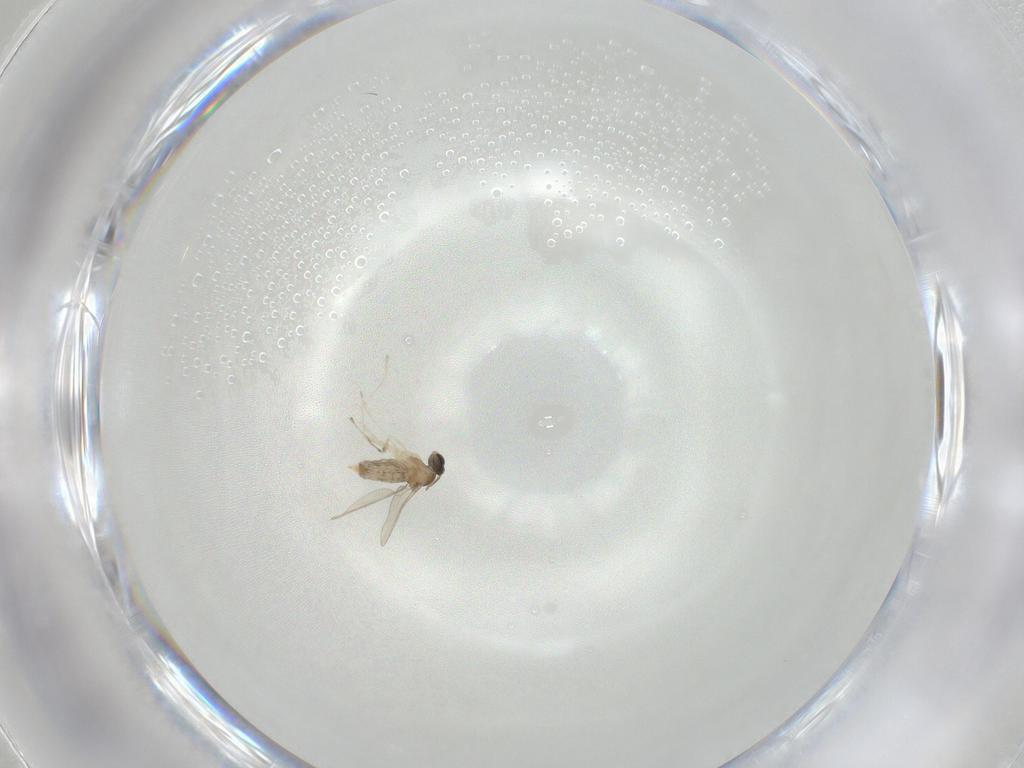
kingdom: Animalia
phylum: Arthropoda
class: Insecta
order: Diptera
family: Cecidomyiidae
